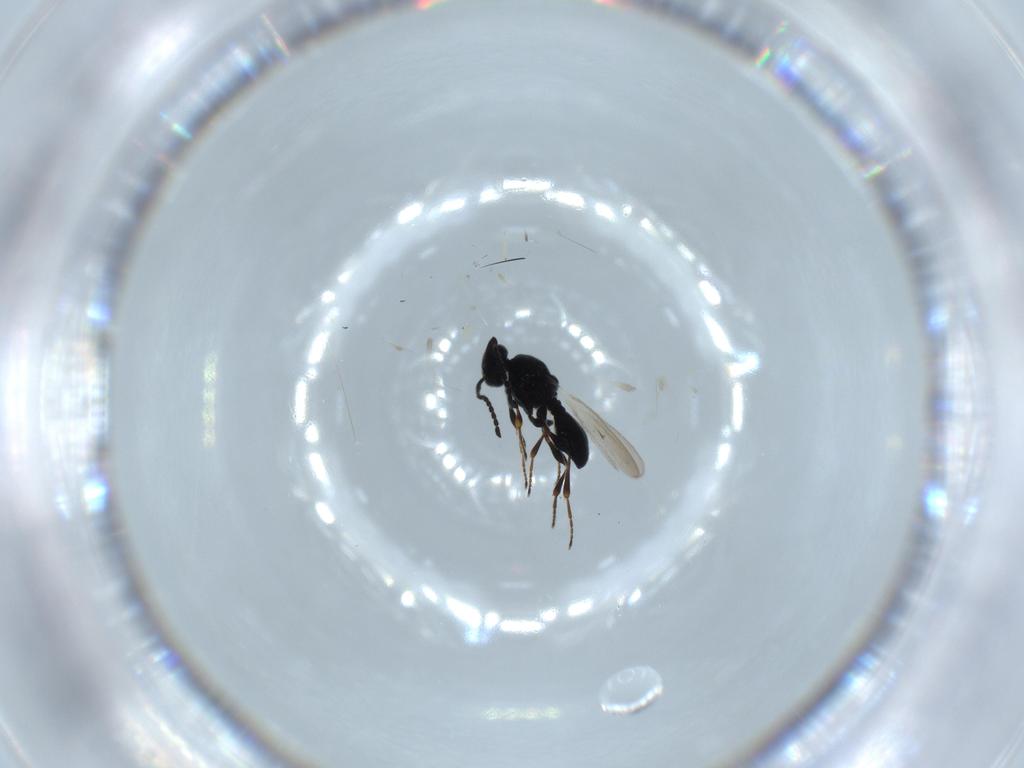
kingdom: Animalia
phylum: Arthropoda
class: Insecta
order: Hymenoptera
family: Platygastridae
